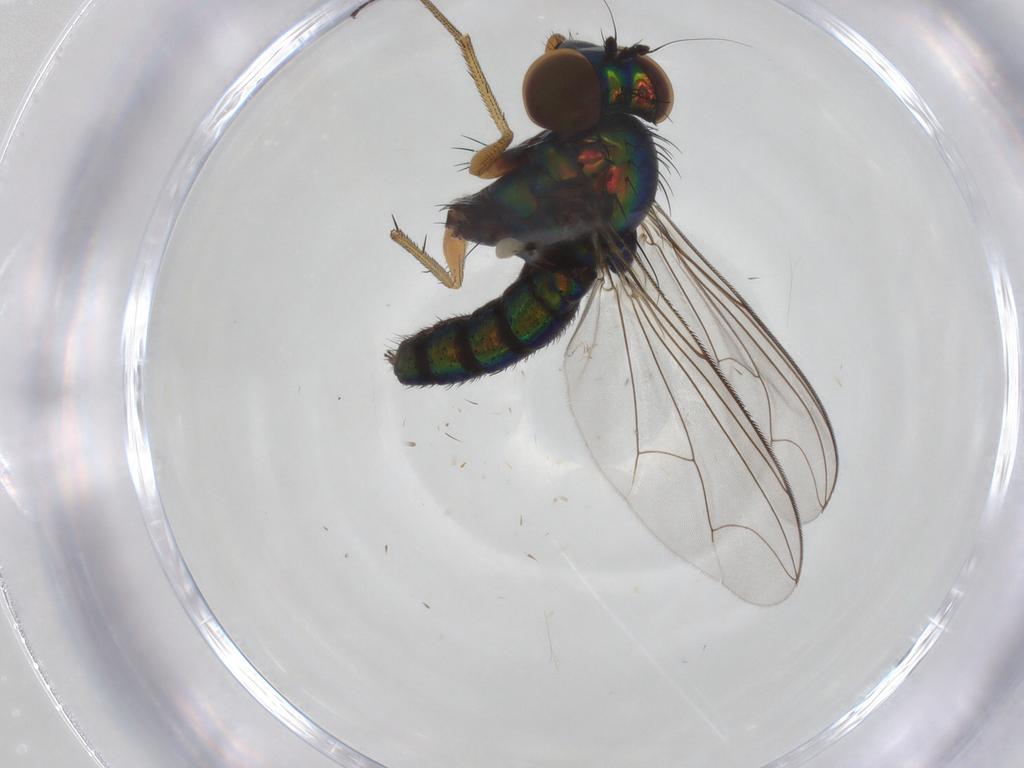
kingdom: Animalia
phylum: Arthropoda
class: Insecta
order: Diptera
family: Dolichopodidae
